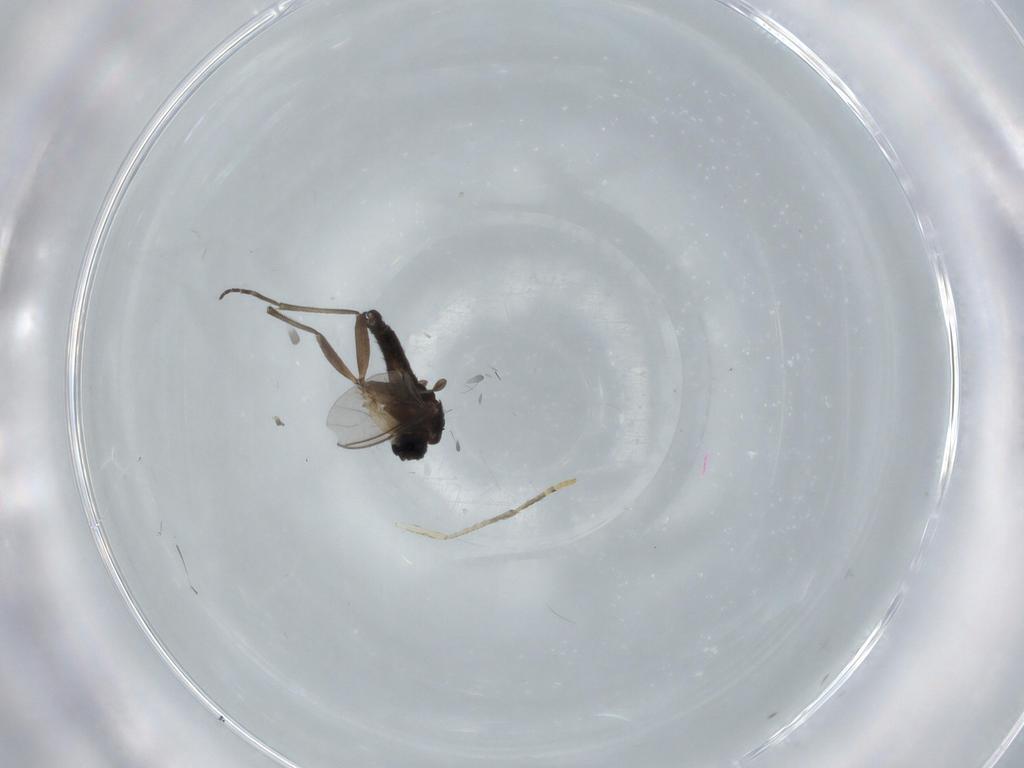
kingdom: Animalia
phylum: Arthropoda
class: Insecta
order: Diptera
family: Sciaridae
